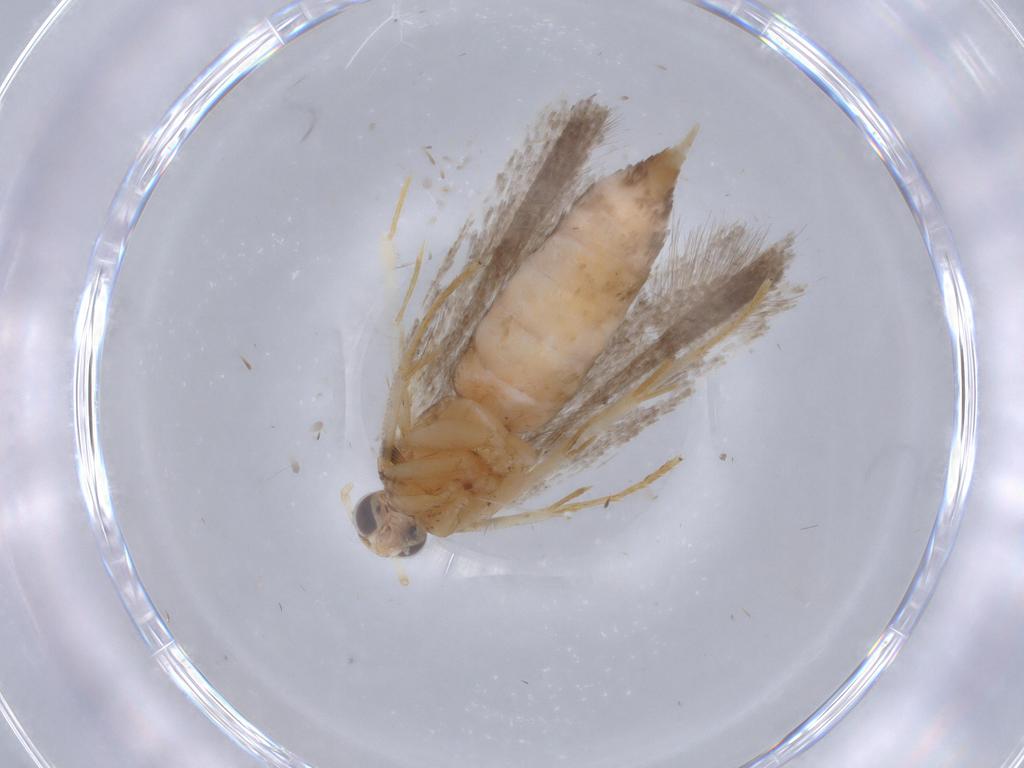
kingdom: Animalia
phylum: Arthropoda
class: Insecta
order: Lepidoptera
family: Gelechiidae
